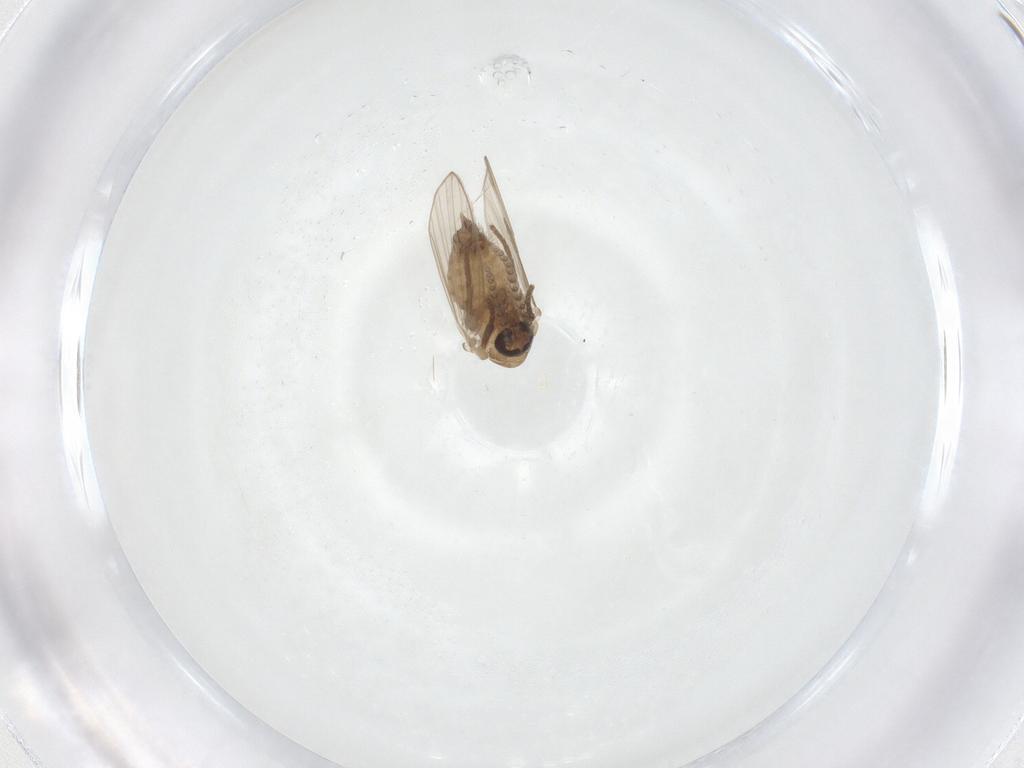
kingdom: Animalia
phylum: Arthropoda
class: Insecta
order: Diptera
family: Psychodidae
